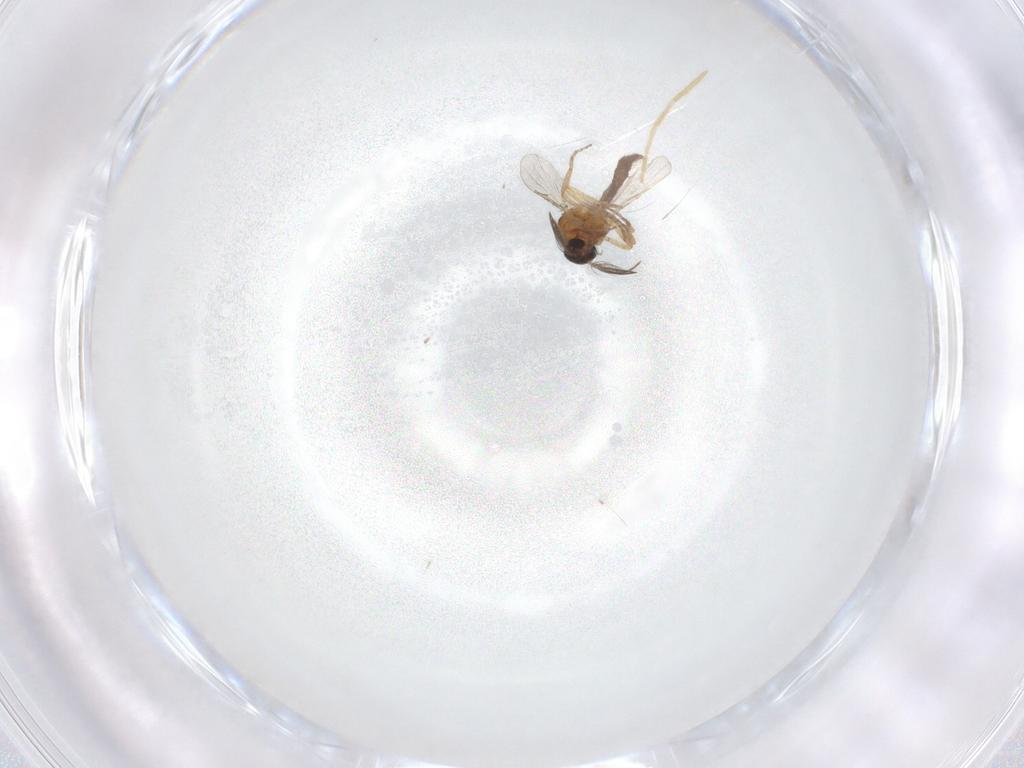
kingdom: Animalia
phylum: Arthropoda
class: Insecta
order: Diptera
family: Ceratopogonidae
